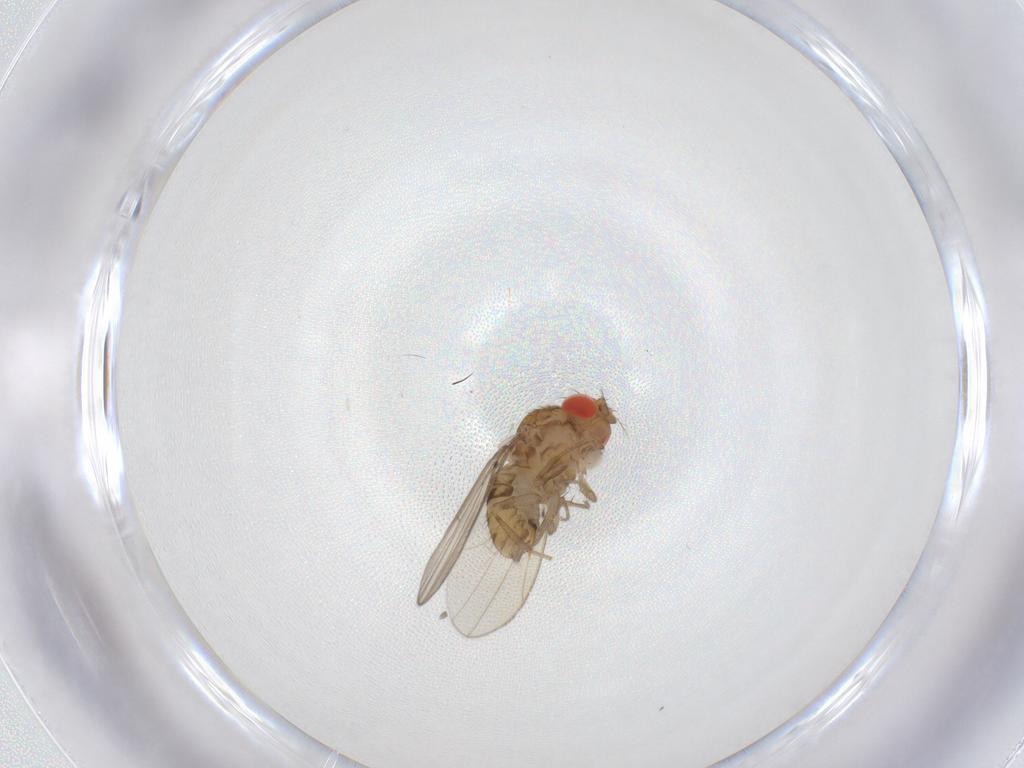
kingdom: Animalia
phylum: Arthropoda
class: Insecta
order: Diptera
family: Drosophilidae
